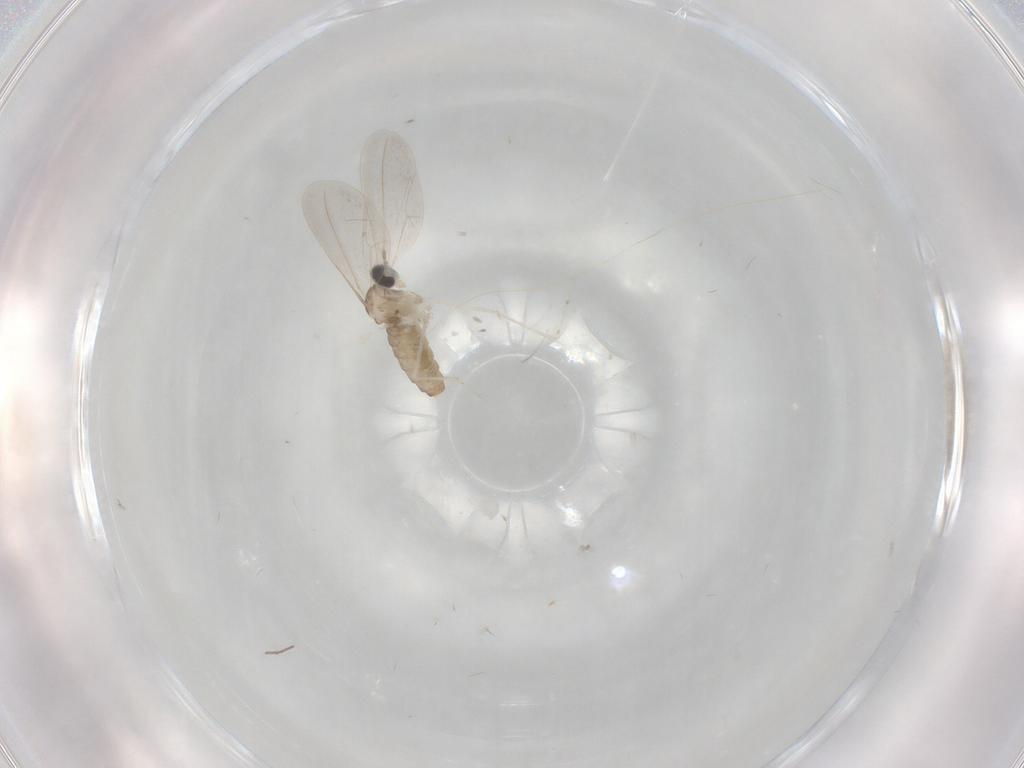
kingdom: Animalia
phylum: Arthropoda
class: Insecta
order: Diptera
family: Cecidomyiidae
